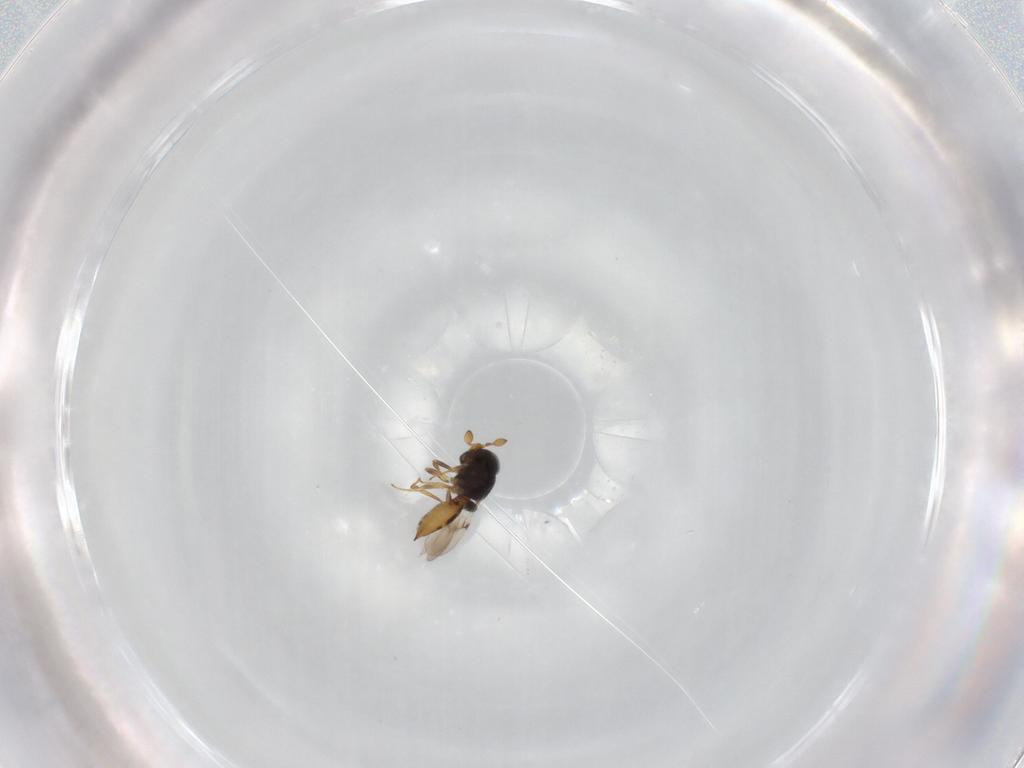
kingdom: Animalia
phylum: Arthropoda
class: Insecta
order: Hymenoptera
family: Scelionidae
